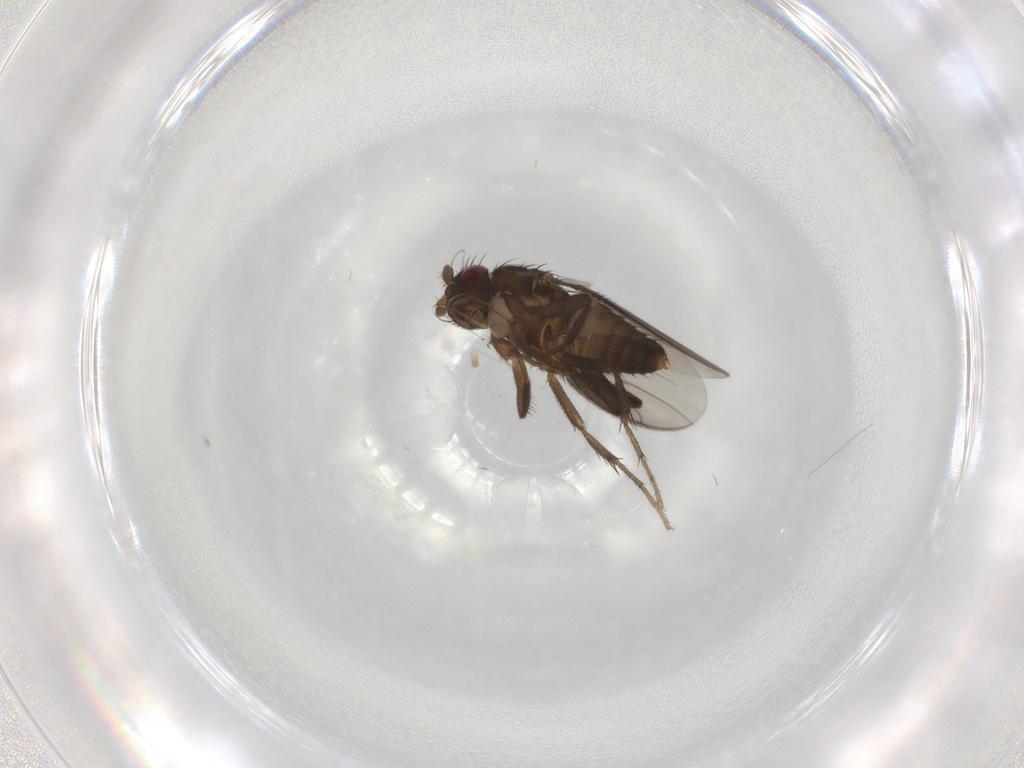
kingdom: Animalia
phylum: Arthropoda
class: Insecta
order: Diptera
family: Sphaeroceridae
